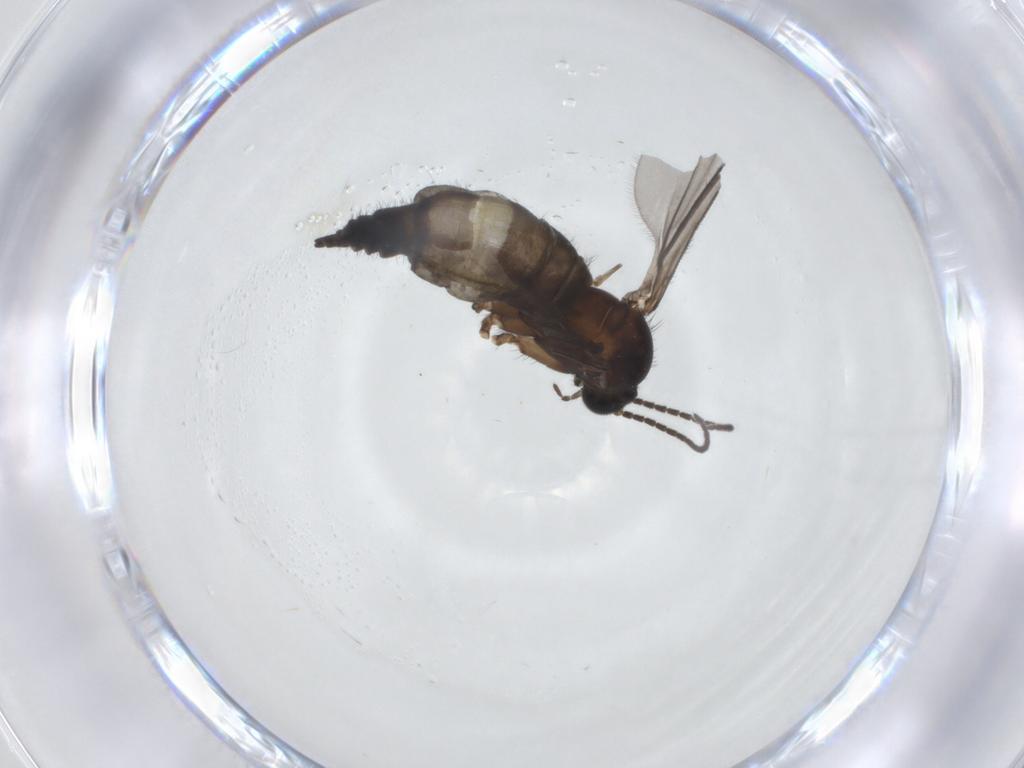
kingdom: Animalia
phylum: Arthropoda
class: Insecta
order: Diptera
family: Sciaridae
